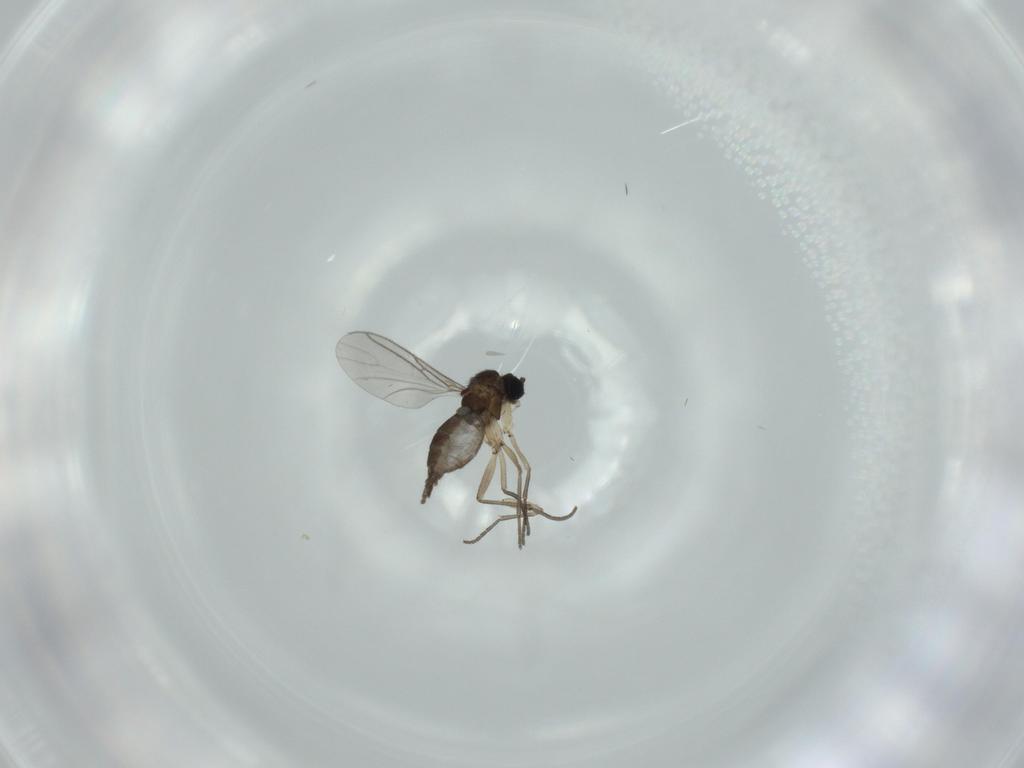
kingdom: Animalia
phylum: Arthropoda
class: Insecta
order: Diptera
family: Sciaridae
